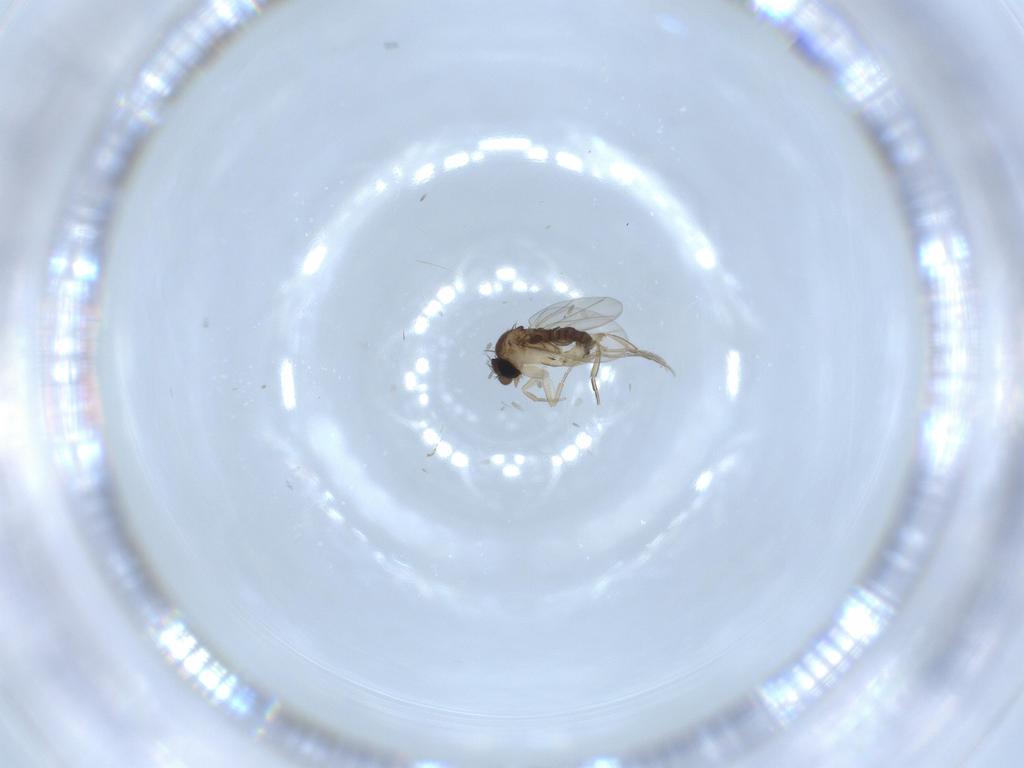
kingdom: Animalia
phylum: Arthropoda
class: Insecta
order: Diptera
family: Phoridae
